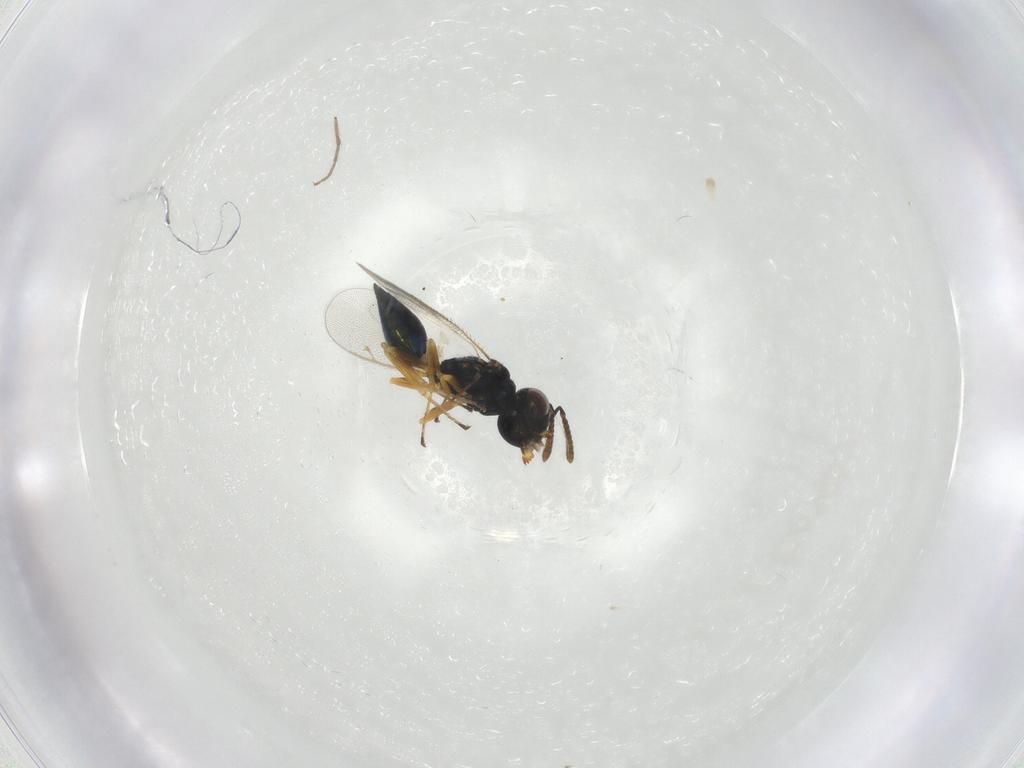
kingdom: Animalia
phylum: Arthropoda
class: Insecta
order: Hymenoptera
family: Pteromalidae
